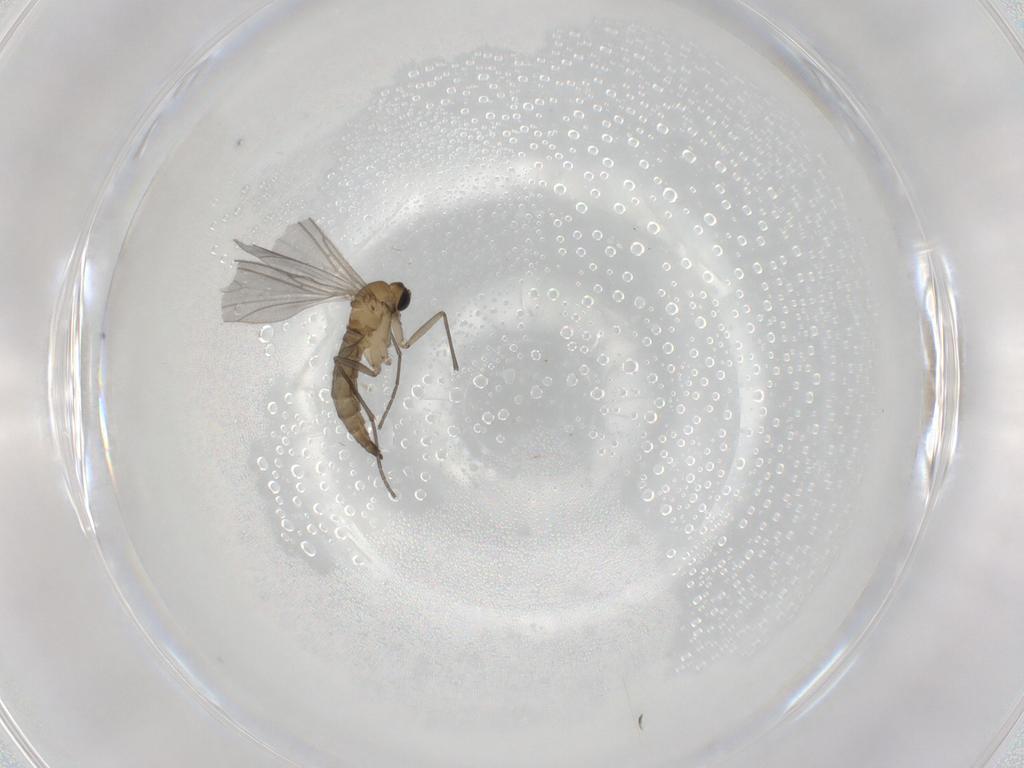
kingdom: Animalia
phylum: Arthropoda
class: Insecta
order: Diptera
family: Sciaridae
